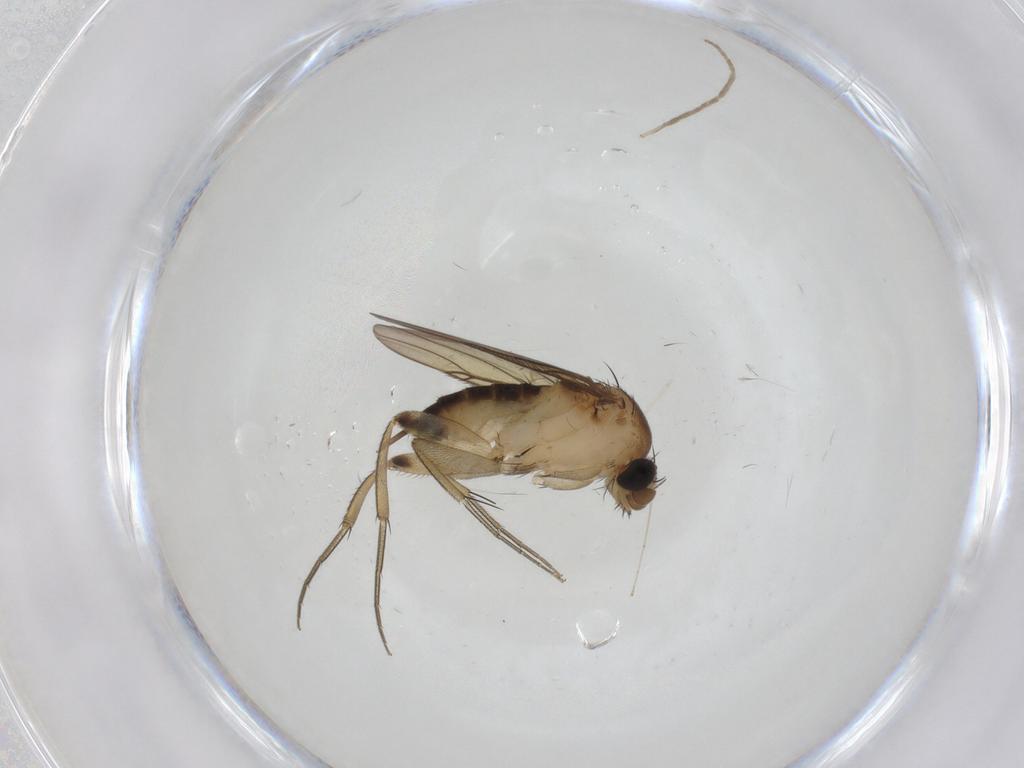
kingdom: Animalia
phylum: Arthropoda
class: Insecta
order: Diptera
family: Phoridae
